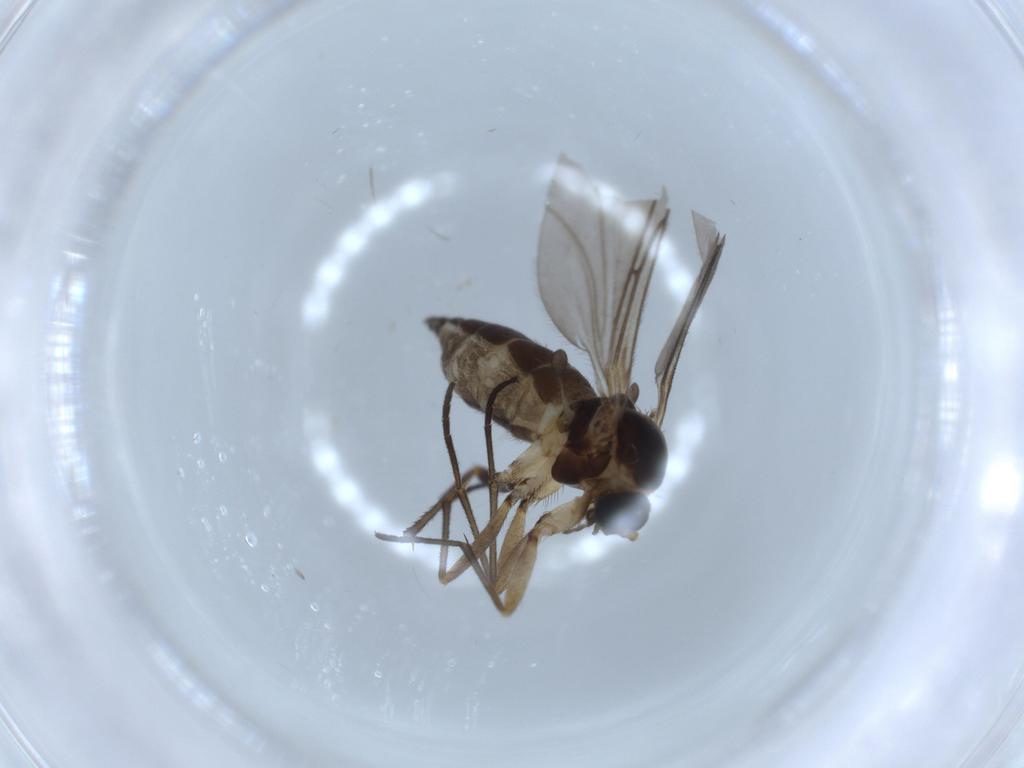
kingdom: Animalia
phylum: Arthropoda
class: Insecta
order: Diptera
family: Sciaridae
